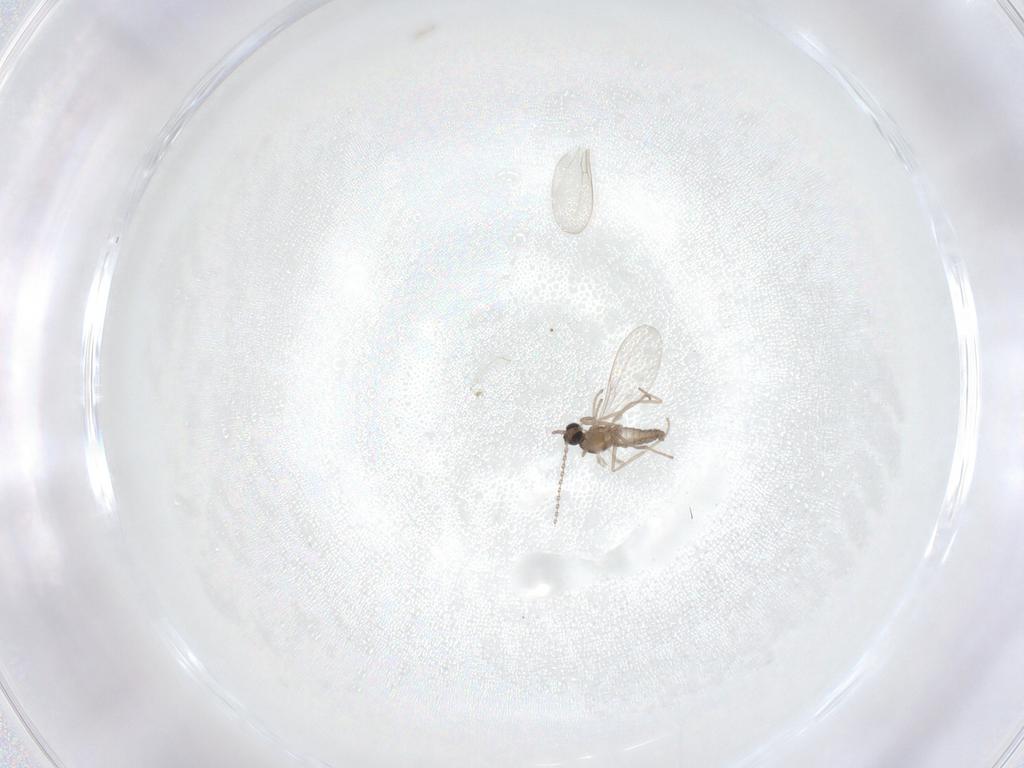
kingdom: Animalia
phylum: Arthropoda
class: Insecta
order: Diptera
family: Cecidomyiidae
